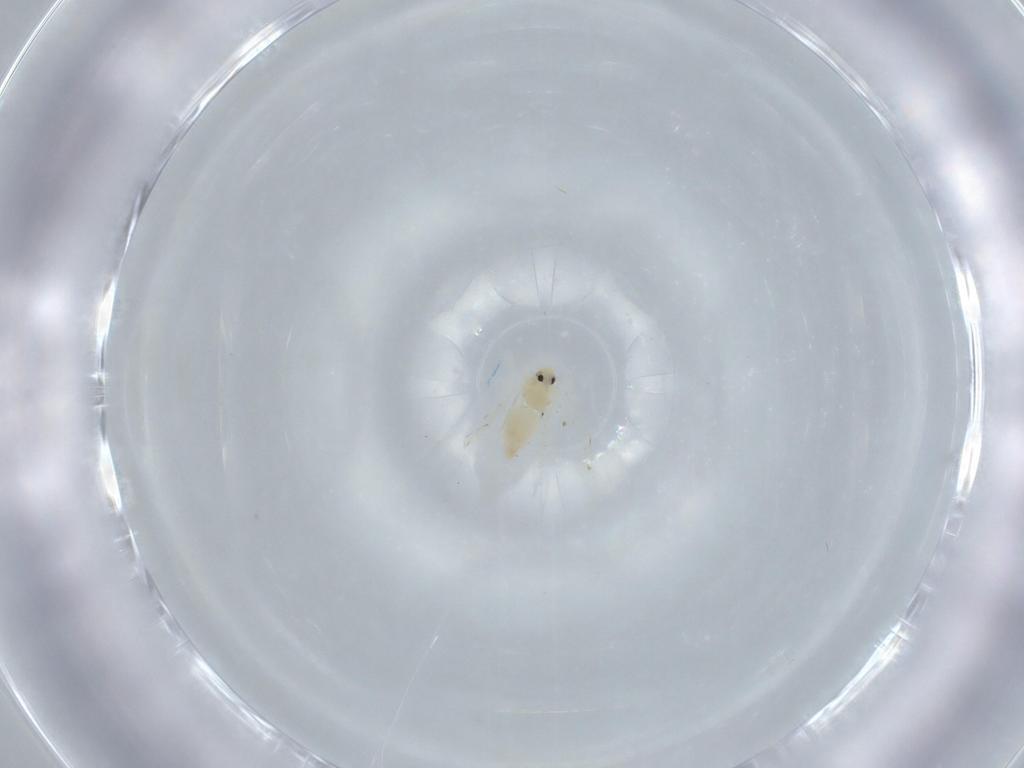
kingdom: Animalia
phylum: Arthropoda
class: Insecta
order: Hemiptera
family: Aleyrodidae
